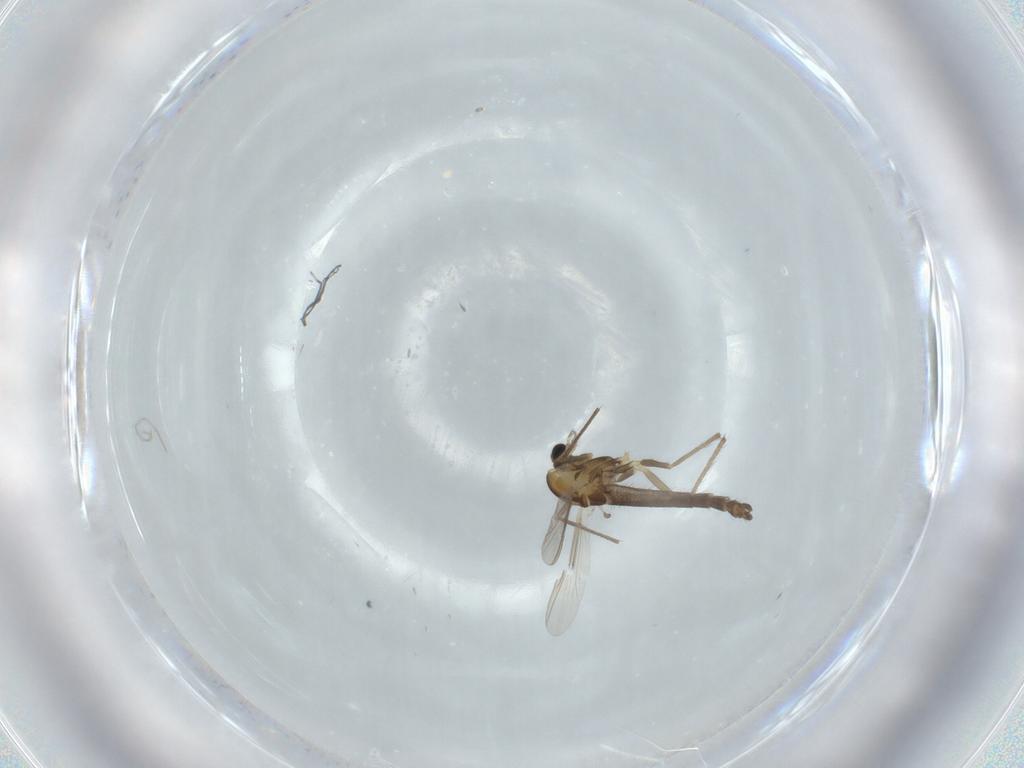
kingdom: Animalia
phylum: Arthropoda
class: Insecta
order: Diptera
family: Chironomidae
